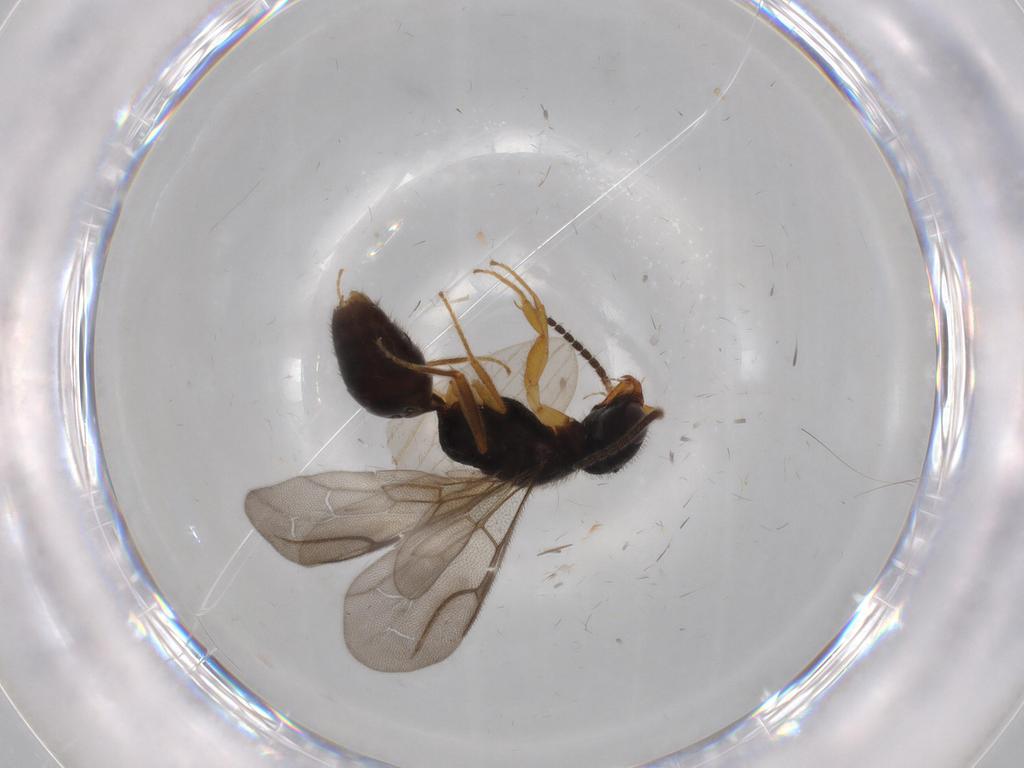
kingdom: Animalia
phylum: Arthropoda
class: Insecta
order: Hymenoptera
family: Bethylidae
